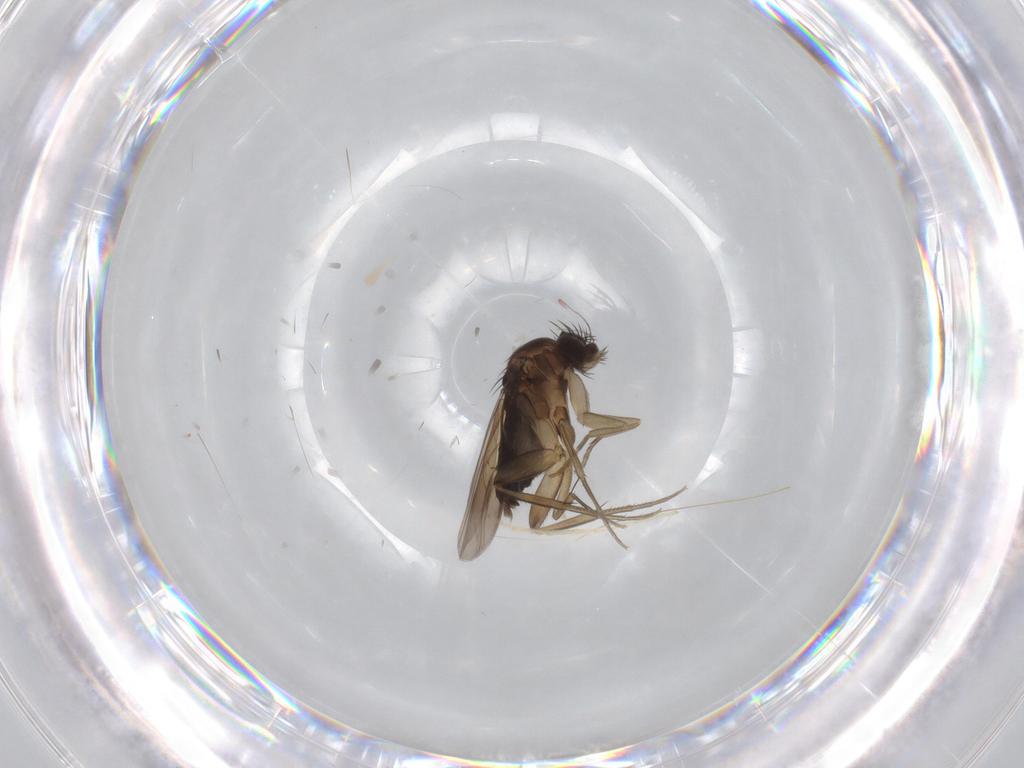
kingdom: Animalia
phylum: Arthropoda
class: Insecta
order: Diptera
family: Chironomidae
